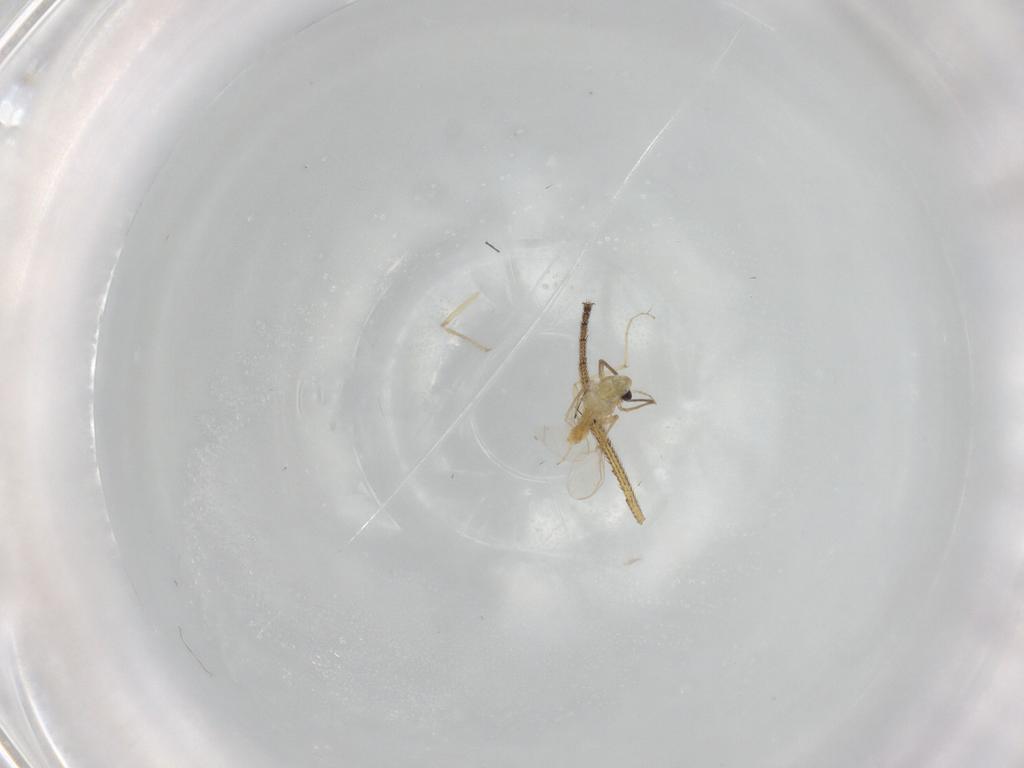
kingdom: Animalia
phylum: Arthropoda
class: Insecta
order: Diptera
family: Chironomidae
